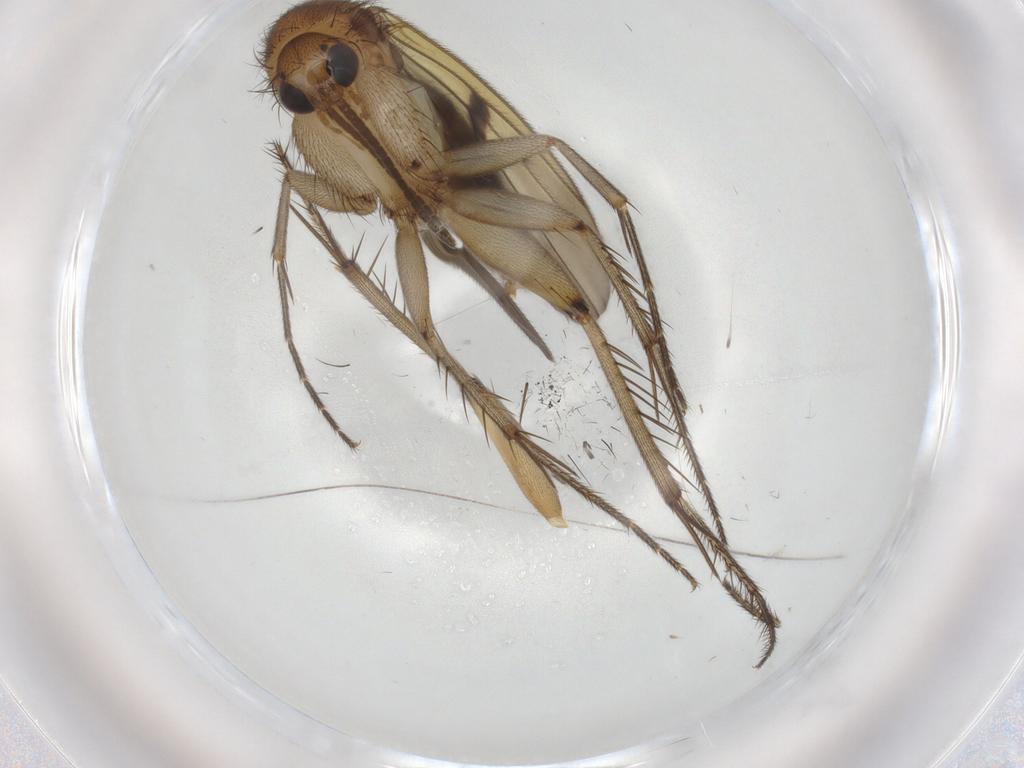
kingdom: Animalia
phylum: Arthropoda
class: Insecta
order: Diptera
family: Mycetophilidae
